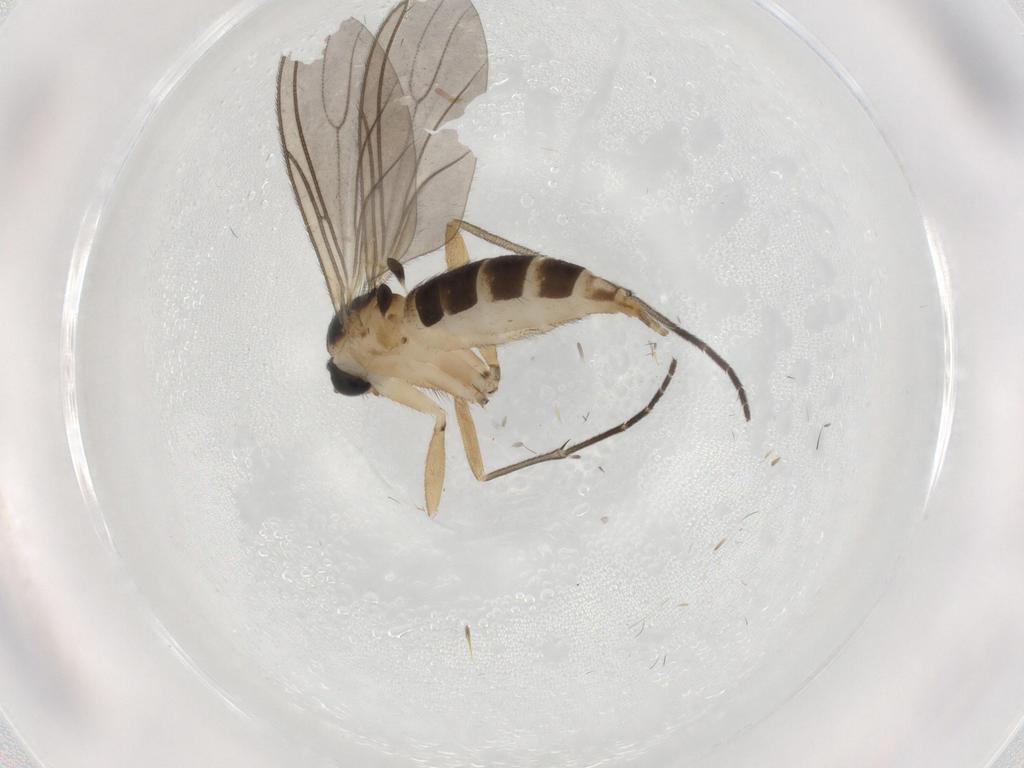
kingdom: Animalia
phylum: Arthropoda
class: Insecta
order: Diptera
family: Sciaridae
